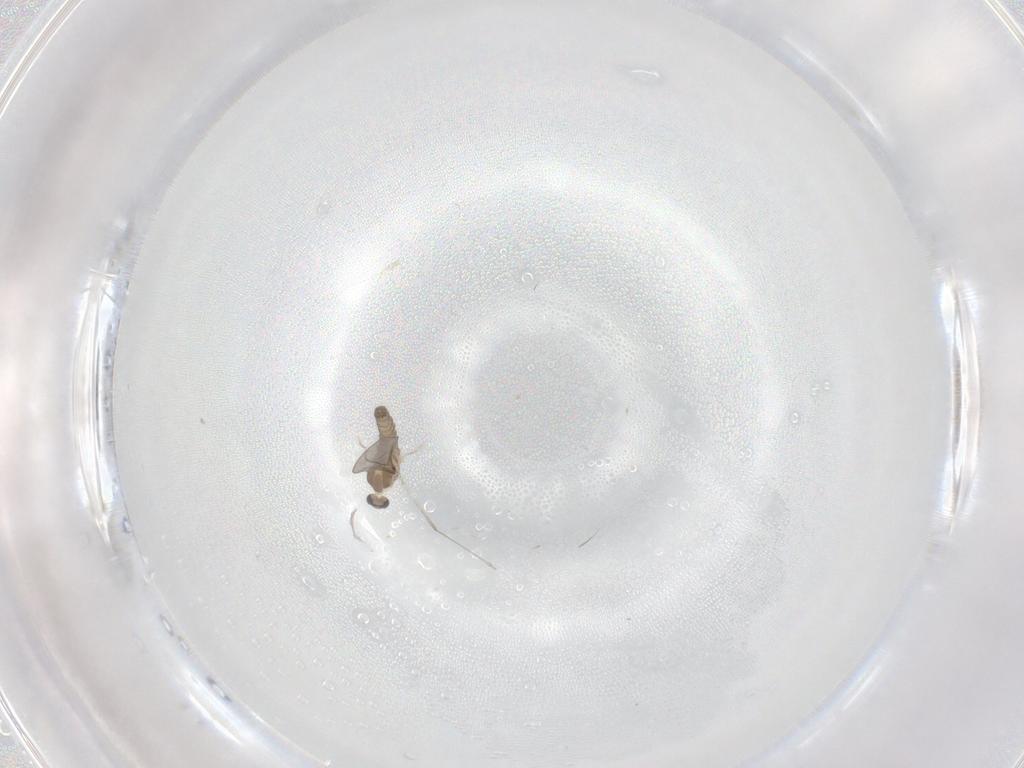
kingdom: Animalia
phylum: Arthropoda
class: Insecta
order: Diptera
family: Cecidomyiidae
